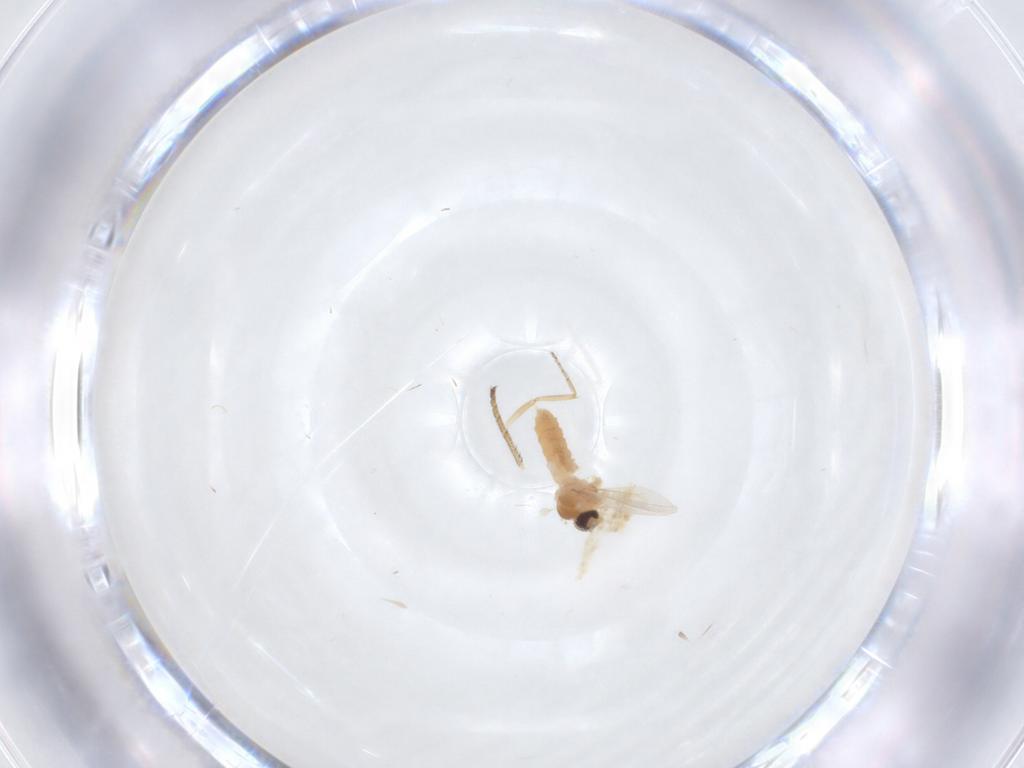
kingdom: Animalia
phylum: Arthropoda
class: Insecta
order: Diptera
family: Cecidomyiidae
